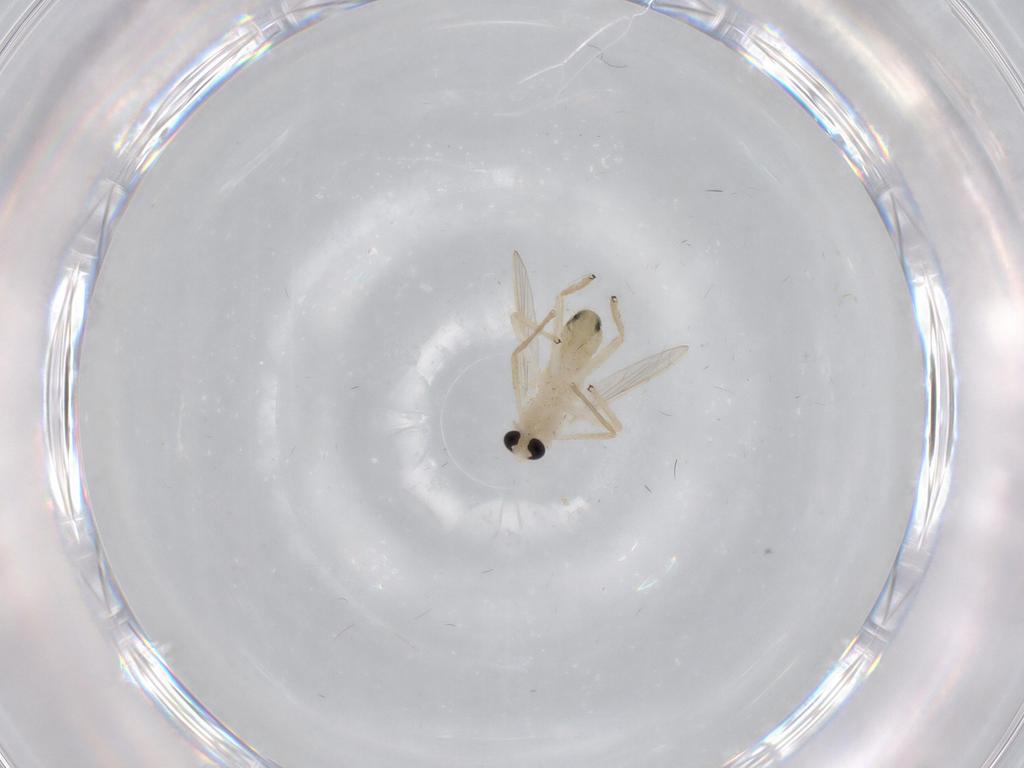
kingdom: Animalia
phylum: Arthropoda
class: Insecta
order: Diptera
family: Chironomidae
